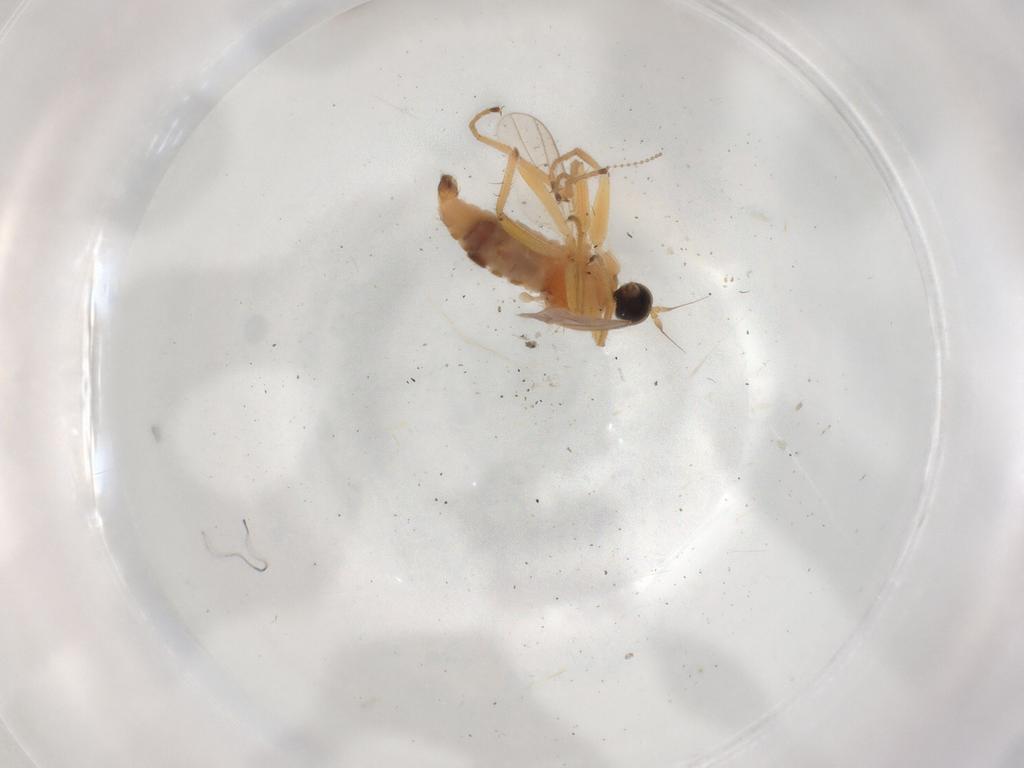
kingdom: Animalia
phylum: Arthropoda
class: Insecta
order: Diptera
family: Hybotidae
